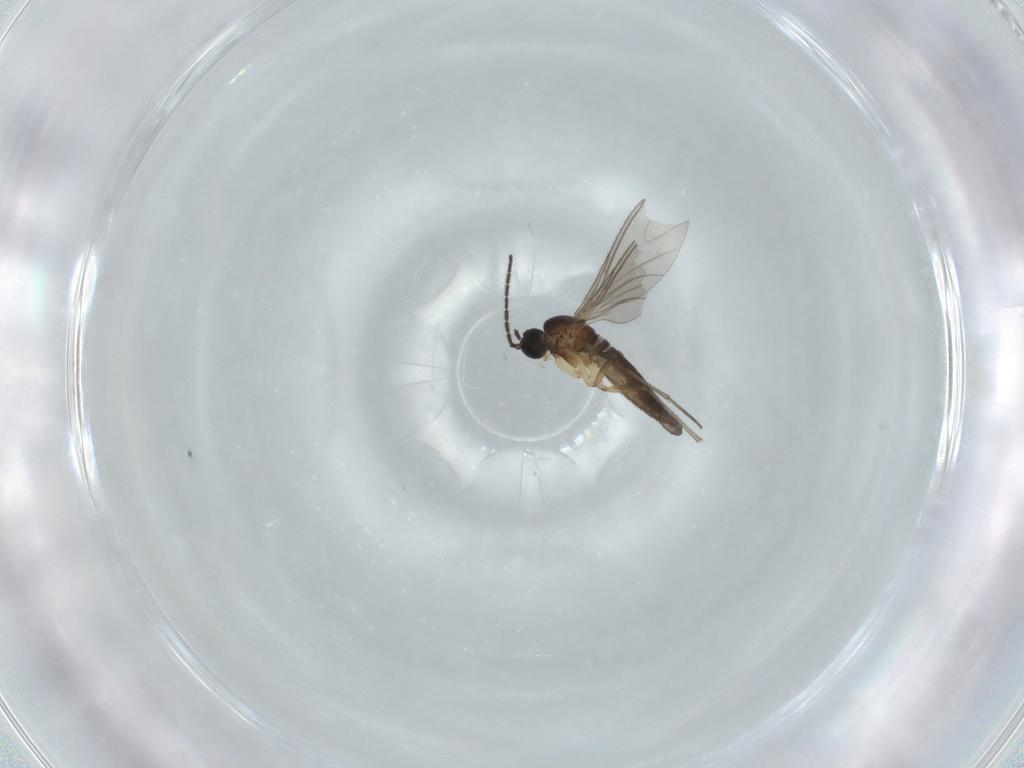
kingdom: Animalia
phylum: Arthropoda
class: Insecta
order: Diptera
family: Sciaridae
